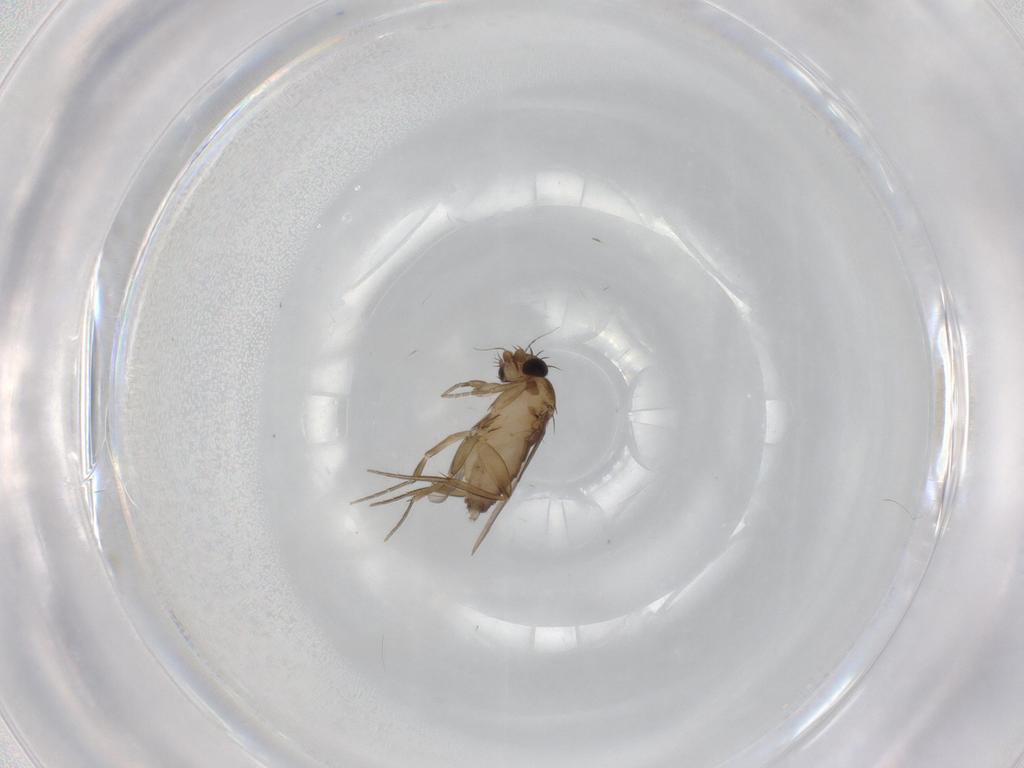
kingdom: Animalia
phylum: Arthropoda
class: Insecta
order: Diptera
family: Phoridae
